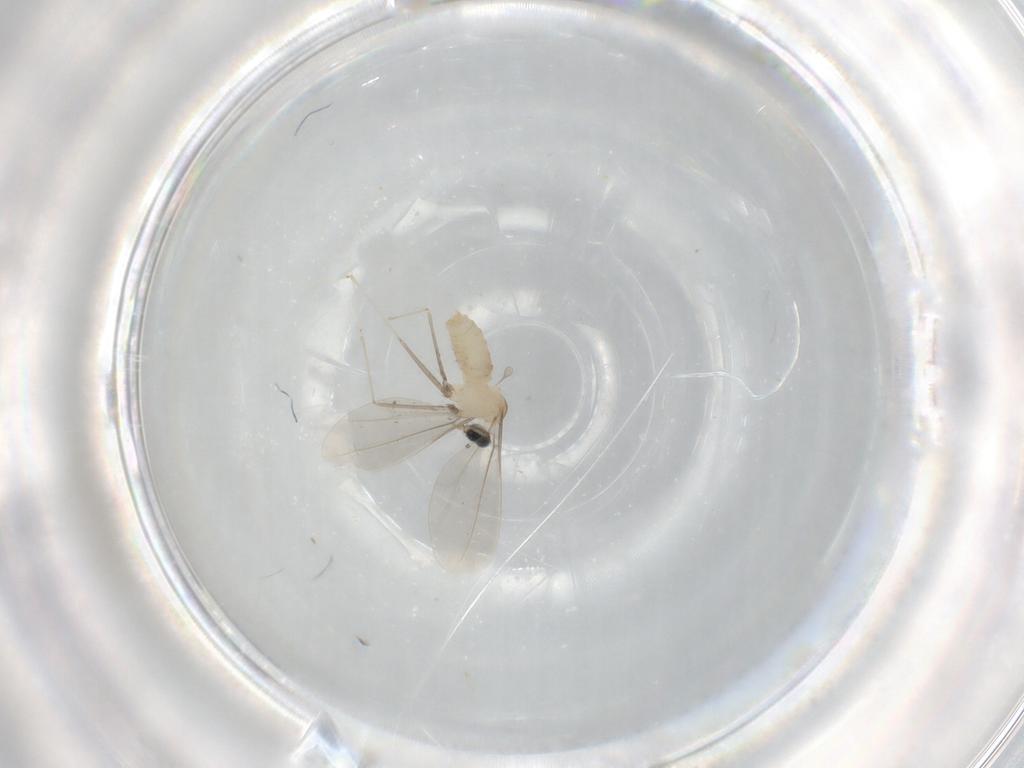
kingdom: Animalia
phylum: Arthropoda
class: Insecta
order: Diptera
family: Cecidomyiidae
